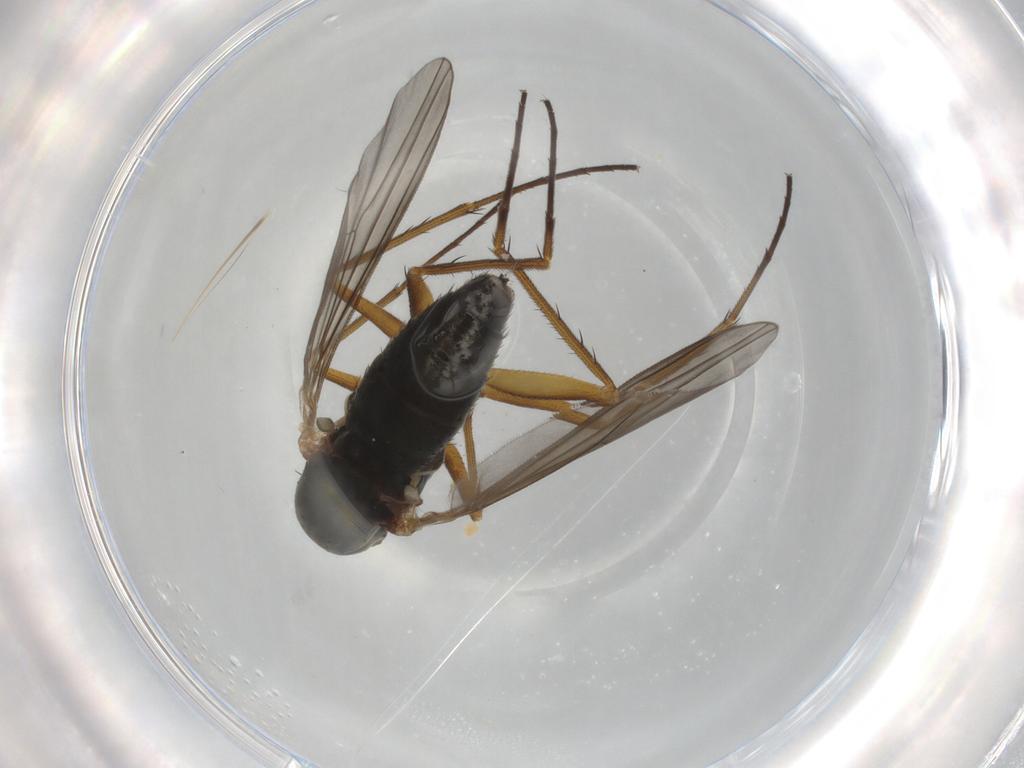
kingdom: Animalia
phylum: Arthropoda
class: Insecta
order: Diptera
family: Dolichopodidae
